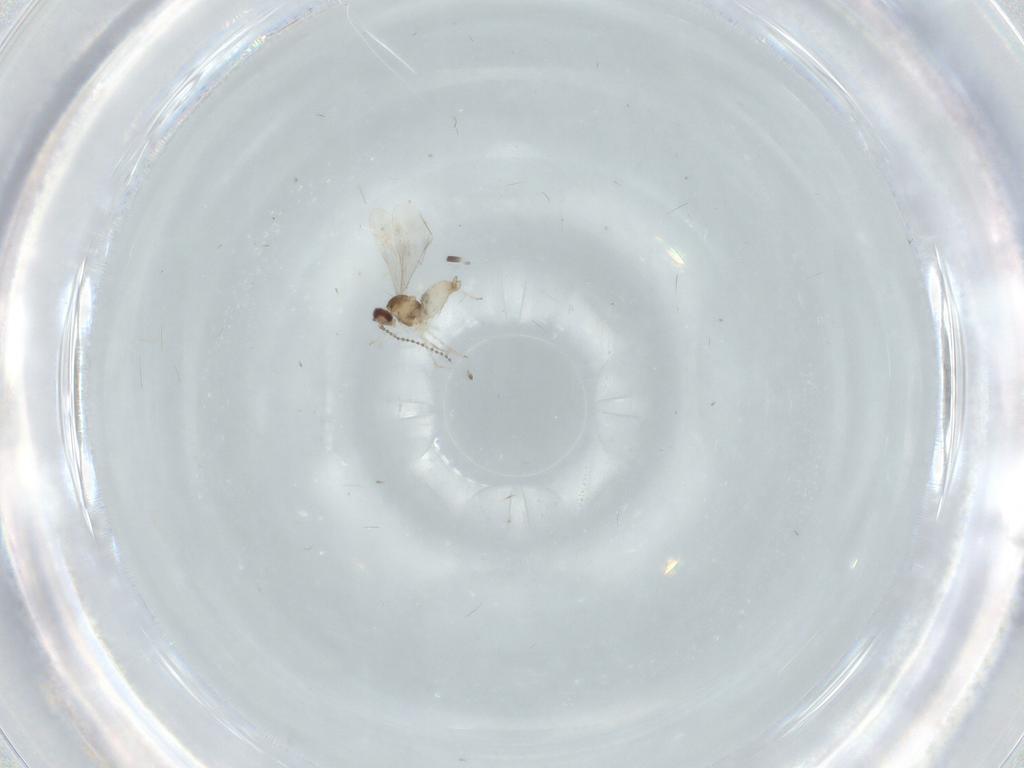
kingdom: Animalia
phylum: Arthropoda
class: Insecta
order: Diptera
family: Cecidomyiidae
